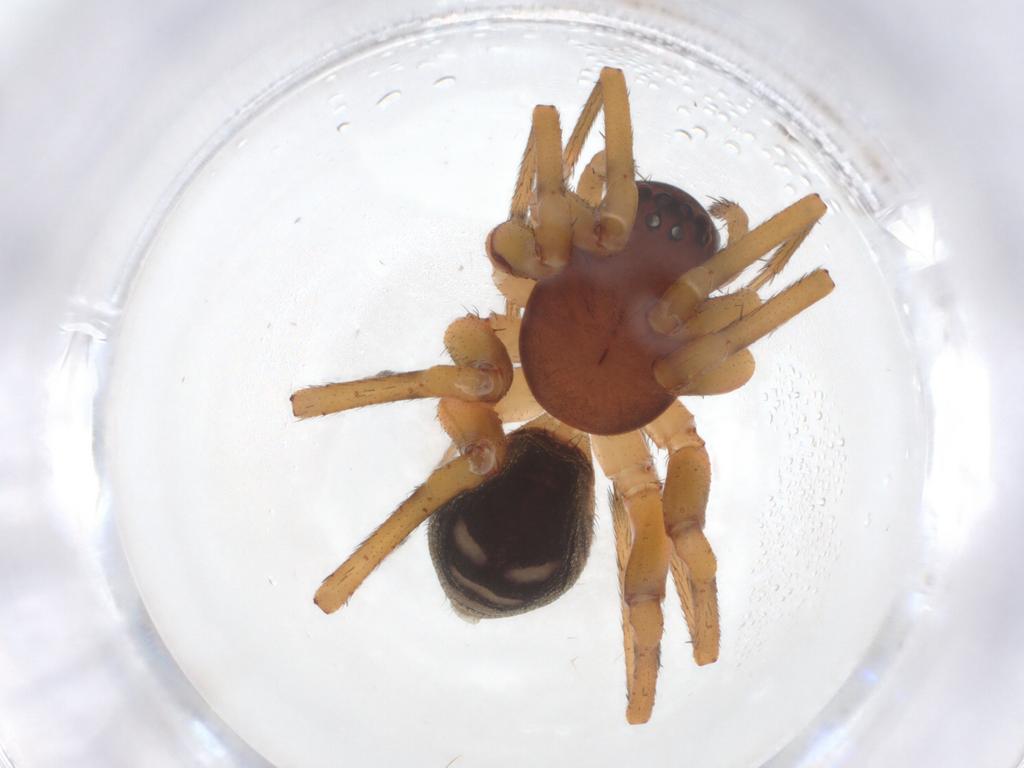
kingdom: Animalia
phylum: Arthropoda
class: Arachnida
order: Araneae
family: Zodariidae
